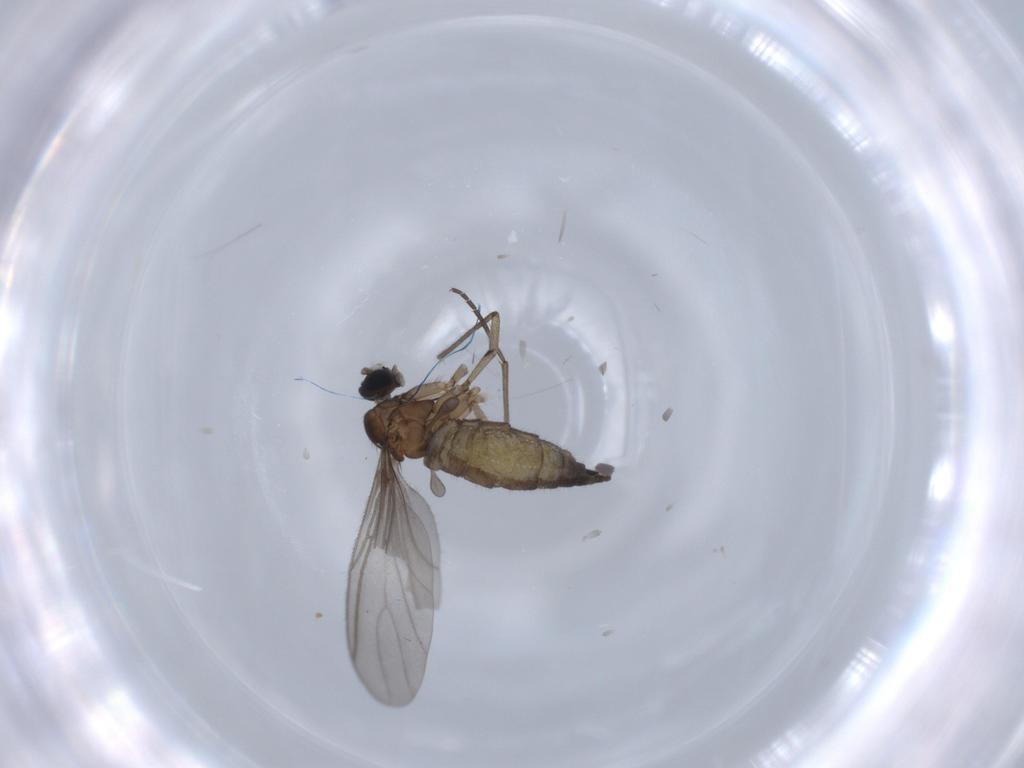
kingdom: Animalia
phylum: Arthropoda
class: Insecta
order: Diptera
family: Sciaridae
